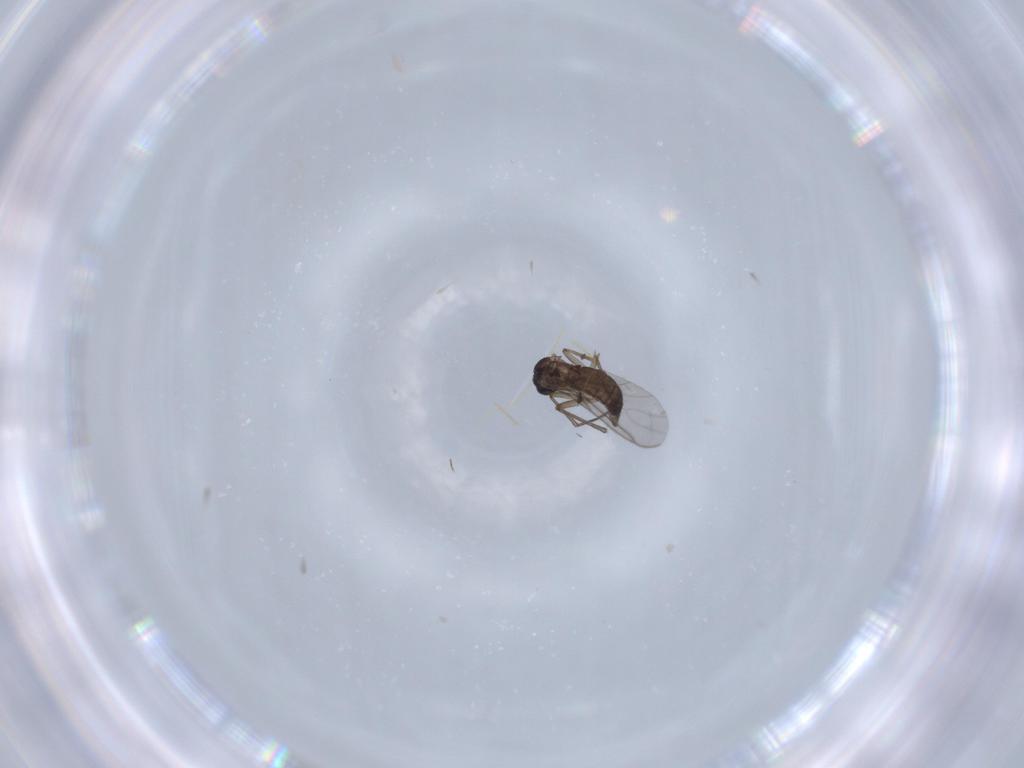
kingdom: Animalia
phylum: Arthropoda
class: Insecta
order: Diptera
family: Sciaridae
